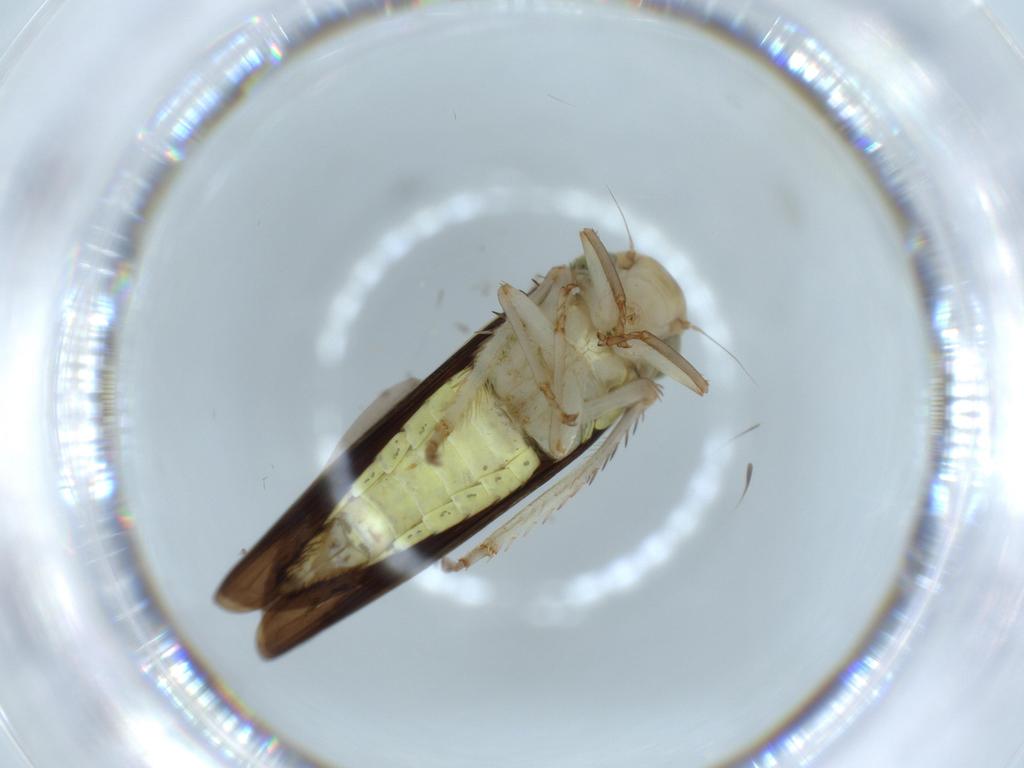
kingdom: Animalia
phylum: Arthropoda
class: Insecta
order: Hemiptera
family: Cicadellidae
